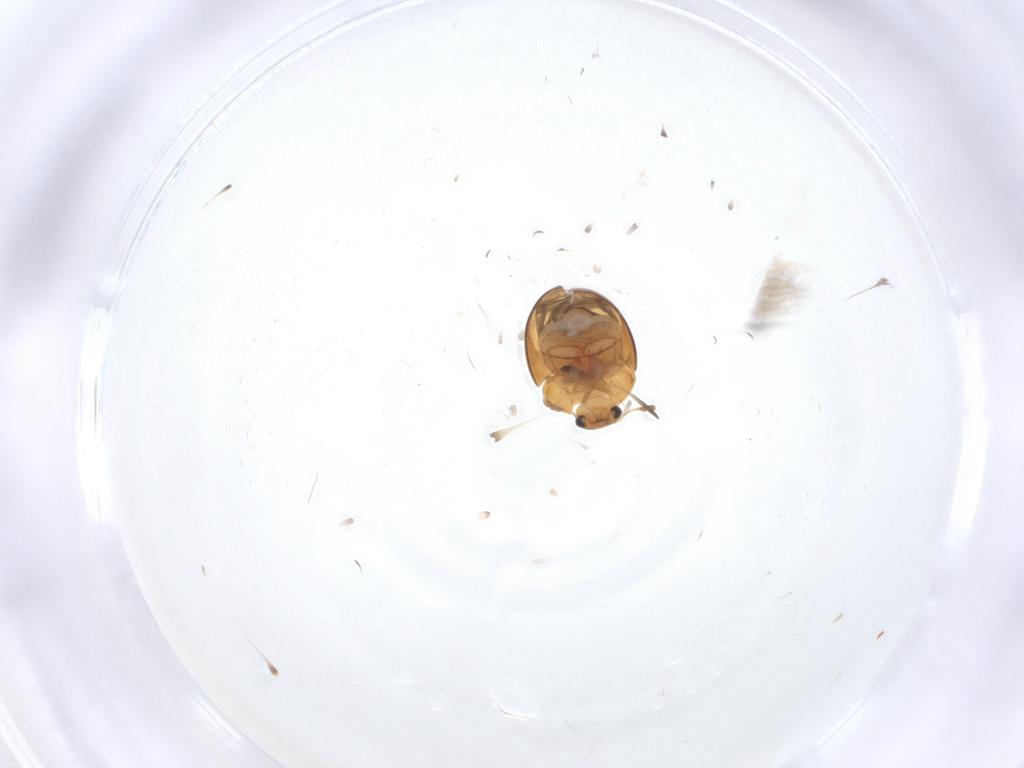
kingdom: Animalia
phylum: Arthropoda
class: Insecta
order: Coleoptera
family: Phalacridae
